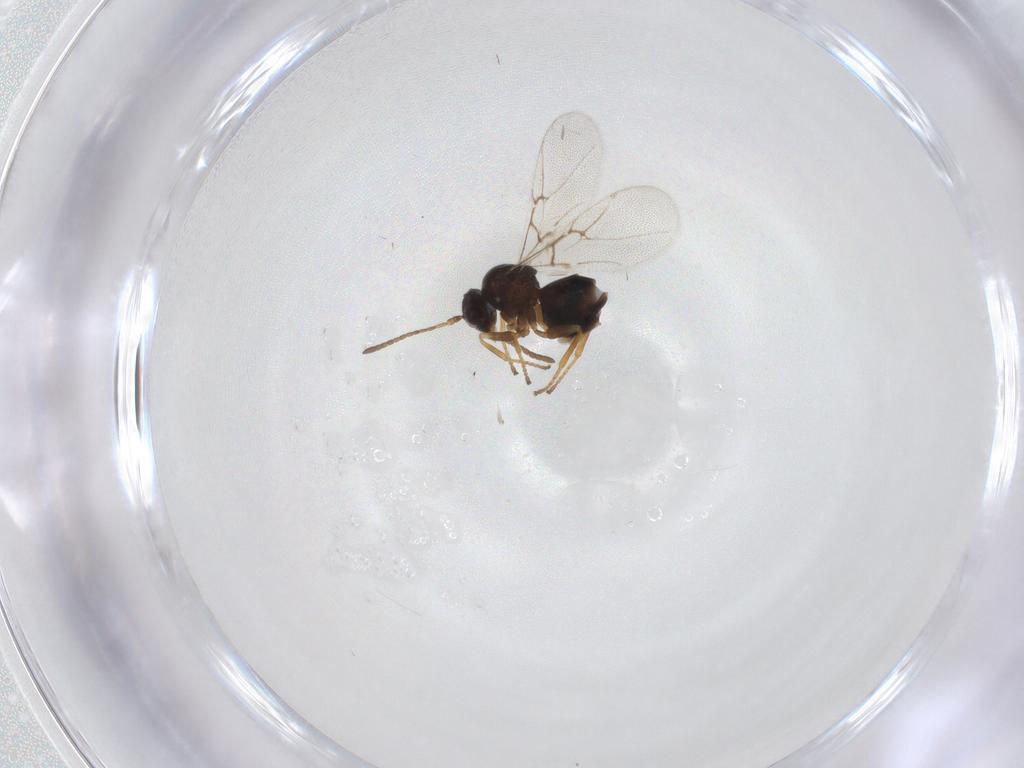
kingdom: Animalia
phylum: Arthropoda
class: Insecta
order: Hymenoptera
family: Cynipidae
